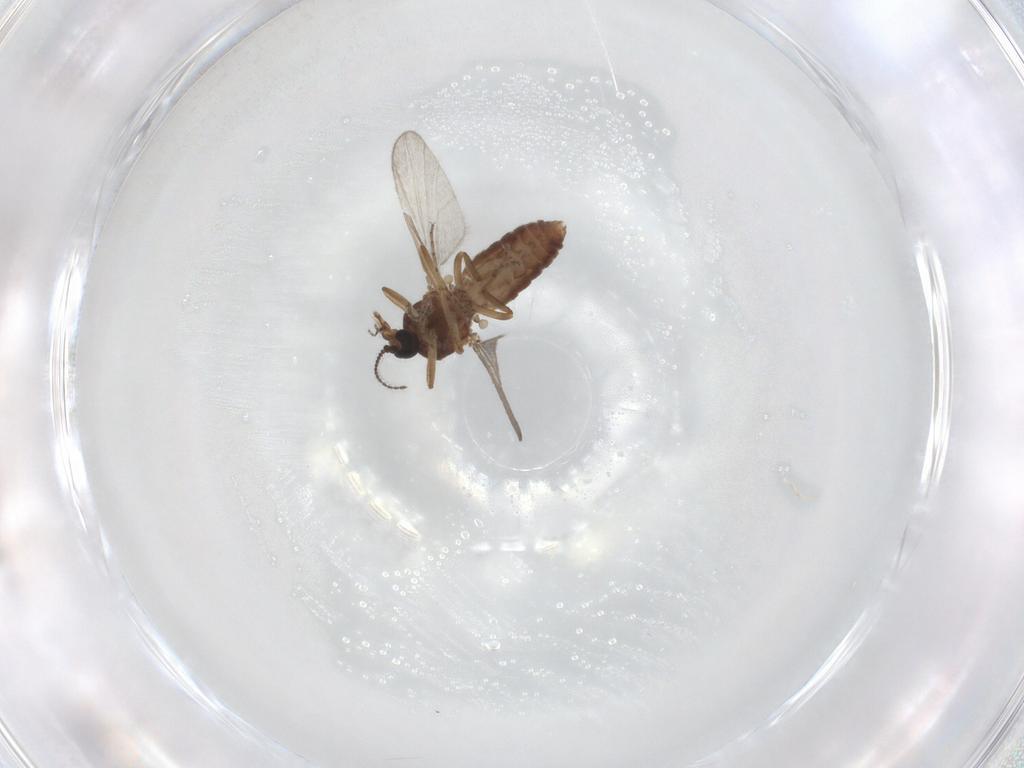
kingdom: Animalia
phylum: Arthropoda
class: Insecta
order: Diptera
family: Ceratopogonidae
